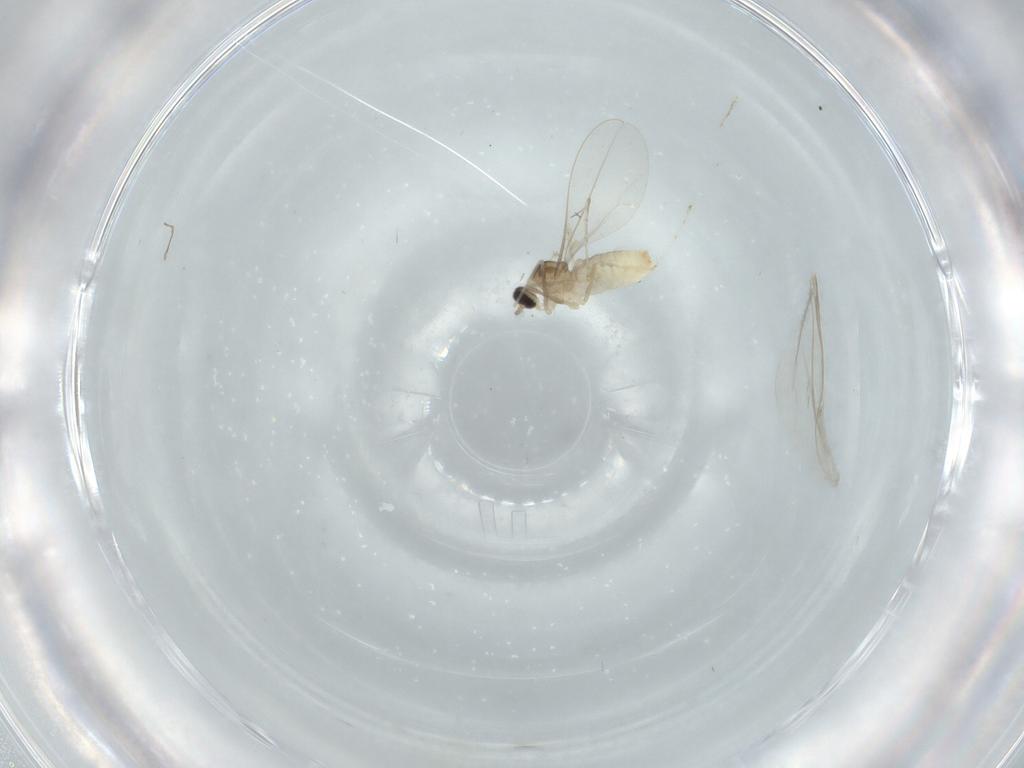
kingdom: Animalia
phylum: Arthropoda
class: Insecta
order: Diptera
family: Cecidomyiidae
